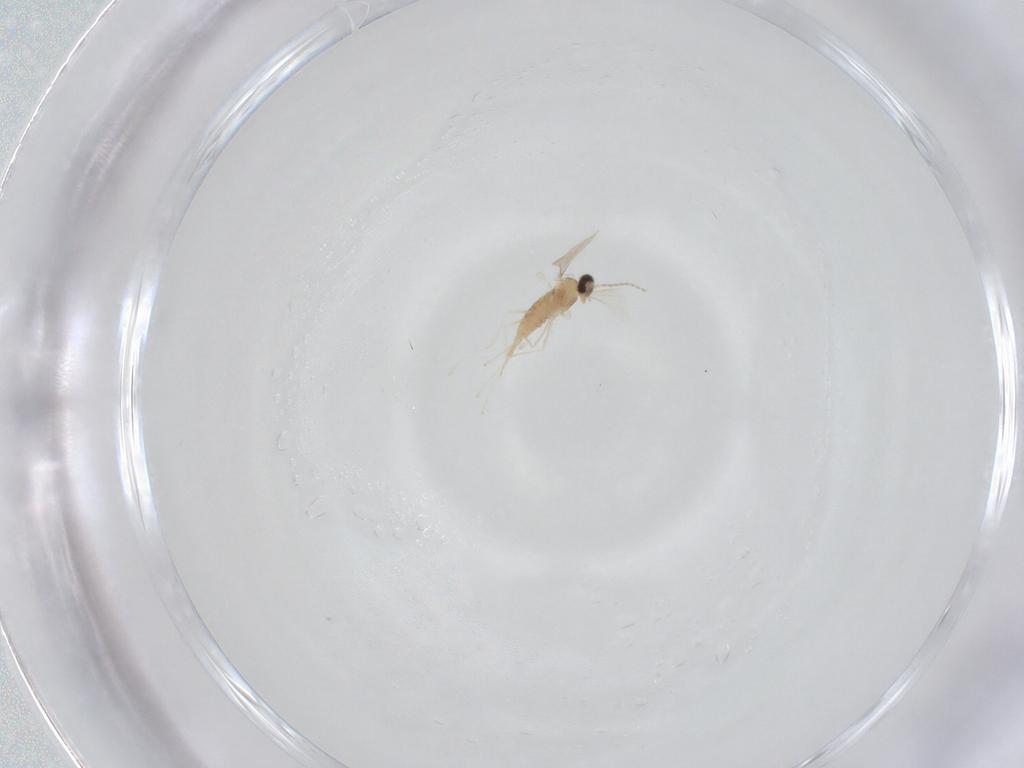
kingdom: Animalia
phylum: Arthropoda
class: Insecta
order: Diptera
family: Cecidomyiidae
